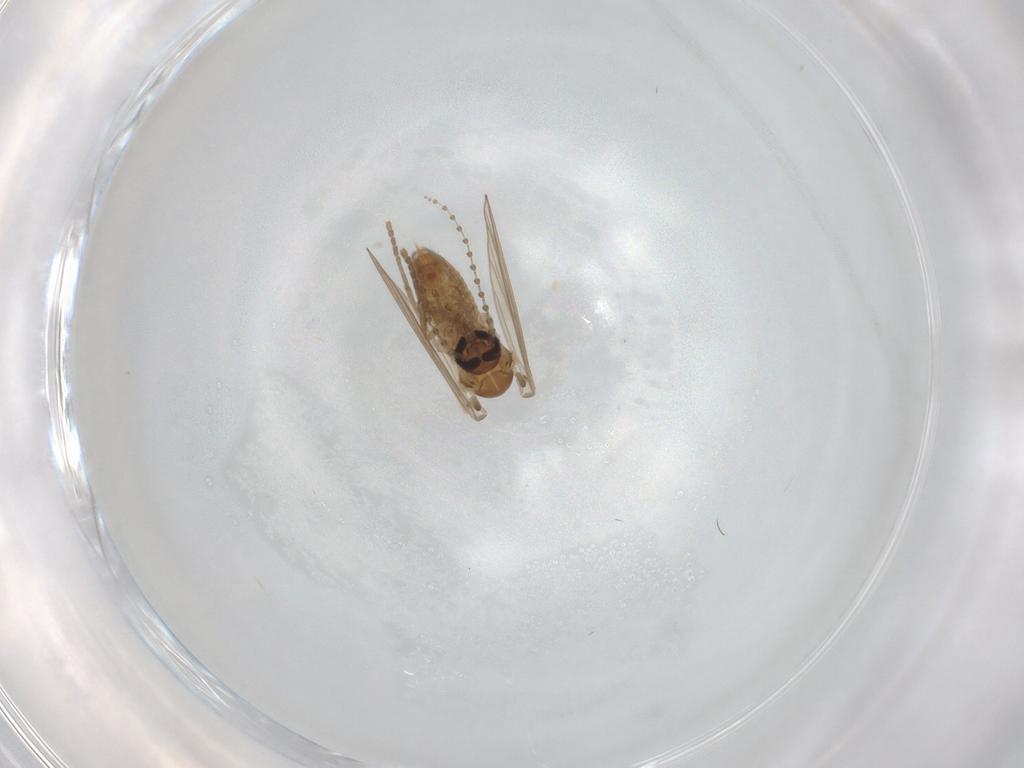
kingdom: Animalia
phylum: Arthropoda
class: Insecta
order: Diptera
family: Psychodidae
